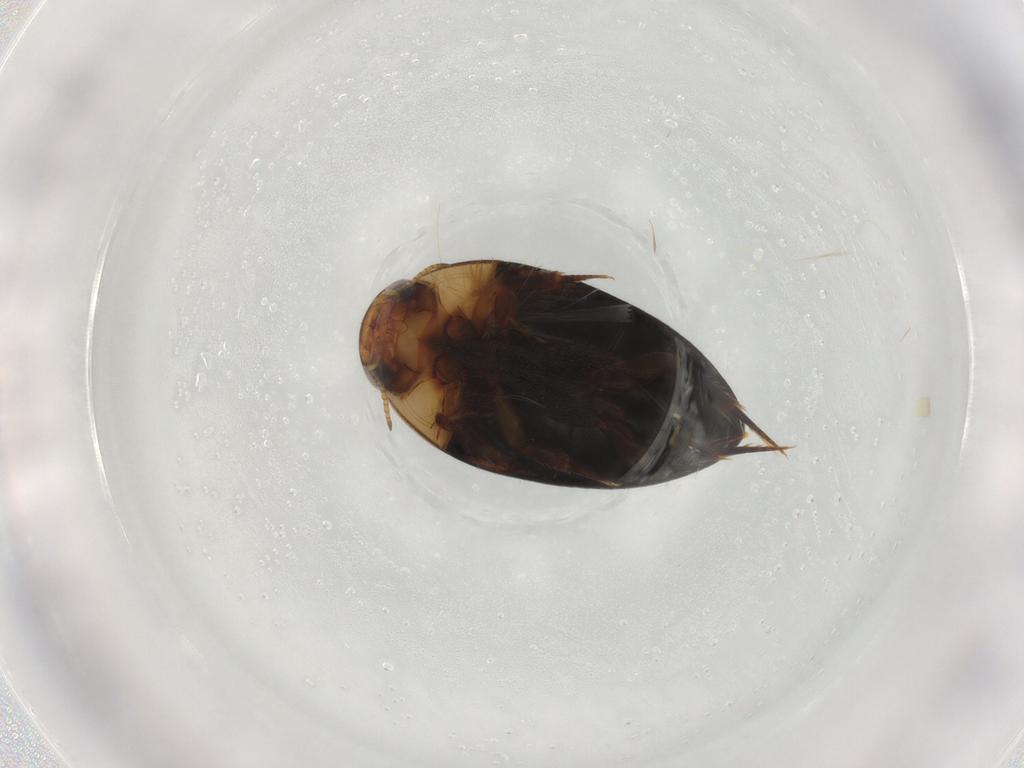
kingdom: Animalia
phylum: Arthropoda
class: Insecta
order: Coleoptera
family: Noteridae
